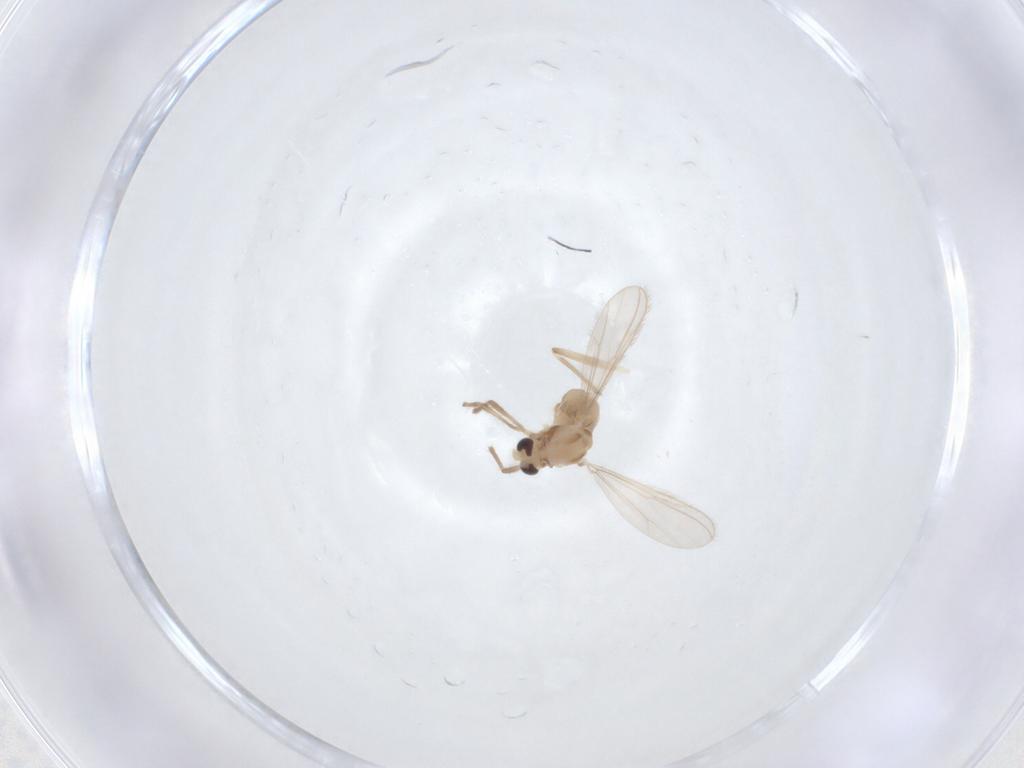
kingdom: Animalia
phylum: Arthropoda
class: Insecta
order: Diptera
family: Chironomidae
